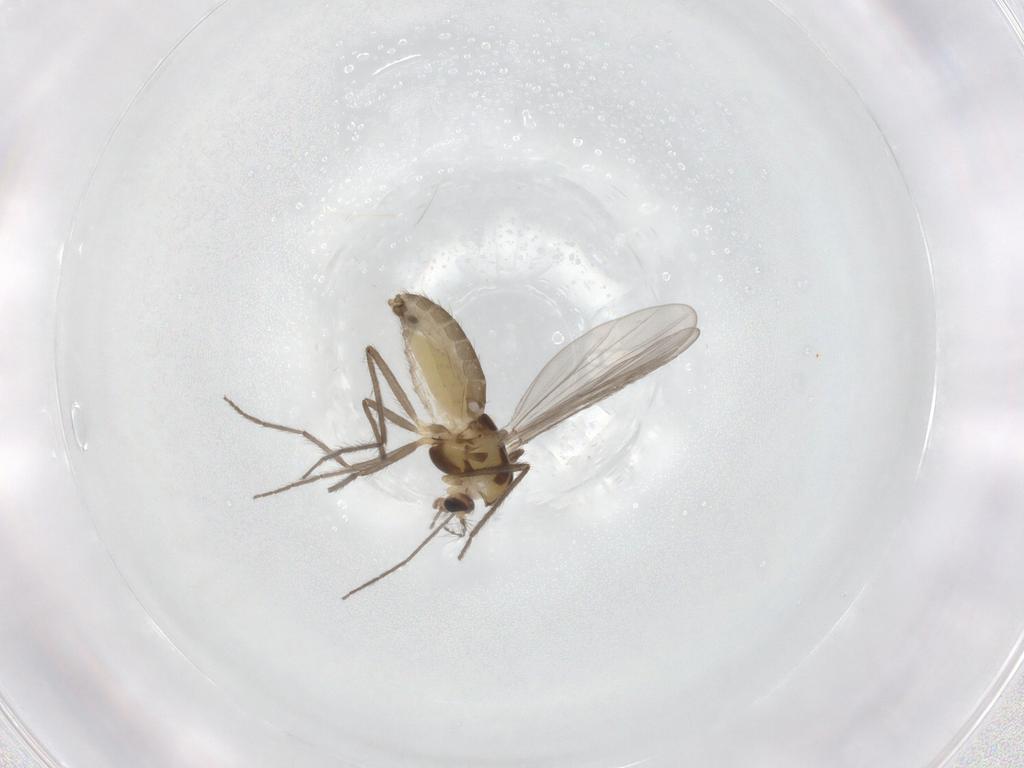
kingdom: Animalia
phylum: Arthropoda
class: Insecta
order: Diptera
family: Chironomidae
